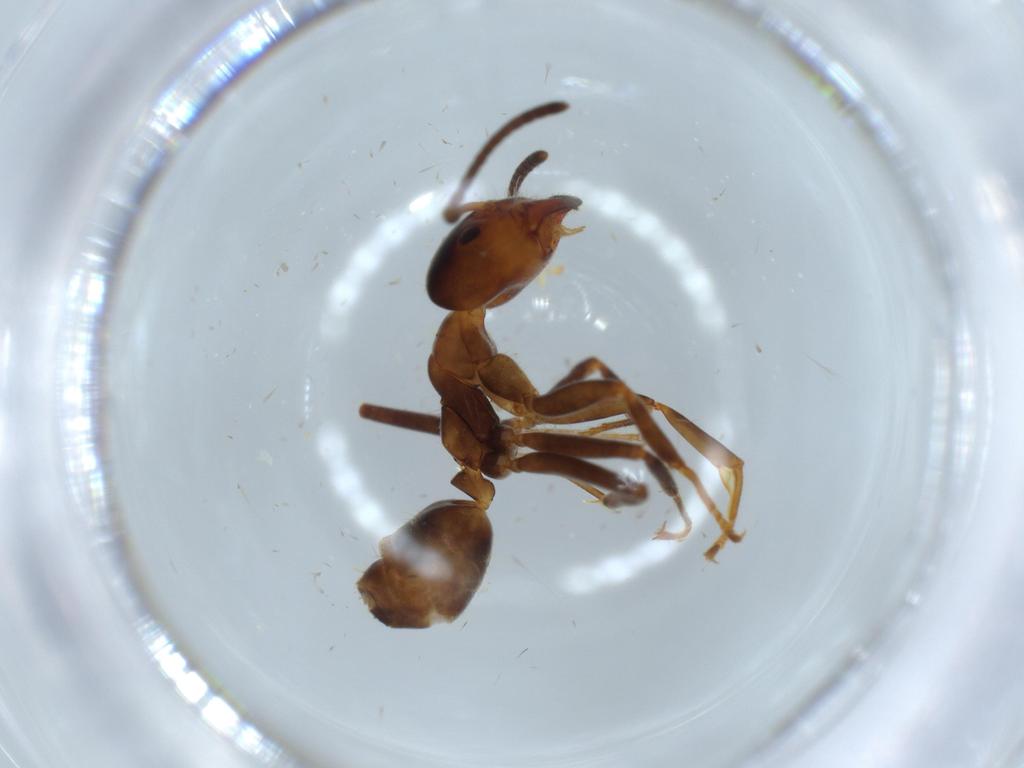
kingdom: Animalia
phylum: Arthropoda
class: Insecta
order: Hymenoptera
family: Formicidae
